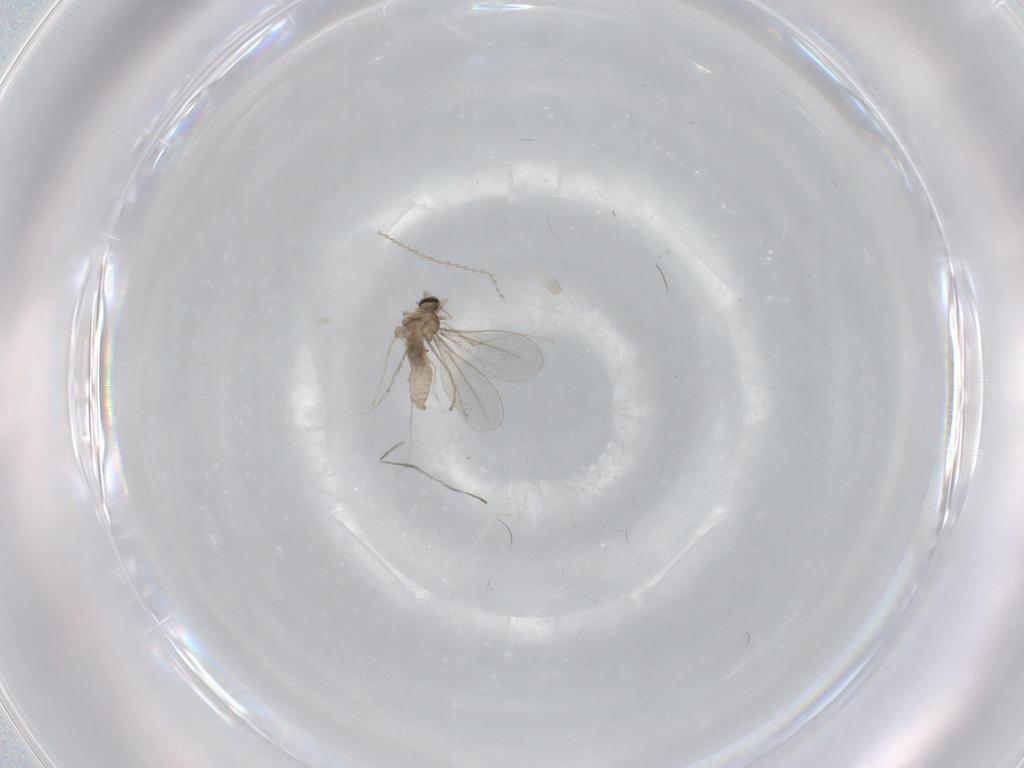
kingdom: Animalia
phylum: Arthropoda
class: Insecta
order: Diptera
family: Cecidomyiidae
